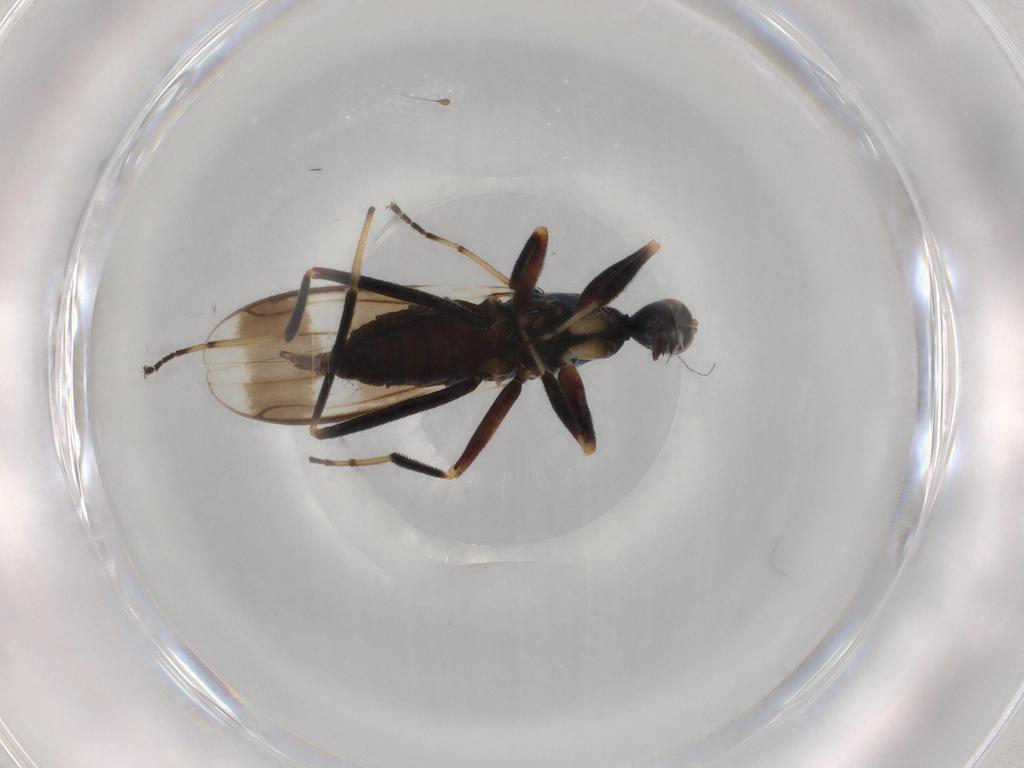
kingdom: Animalia
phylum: Arthropoda
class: Insecta
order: Diptera
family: Hybotidae
